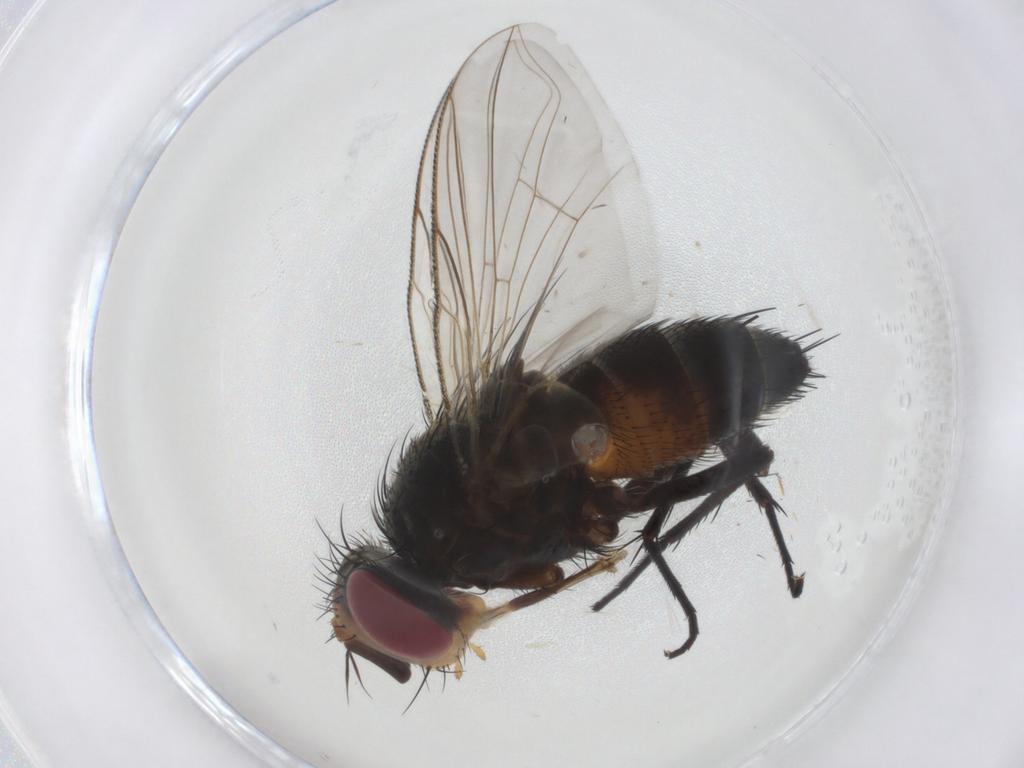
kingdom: Animalia
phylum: Arthropoda
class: Insecta
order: Diptera
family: Tachinidae
